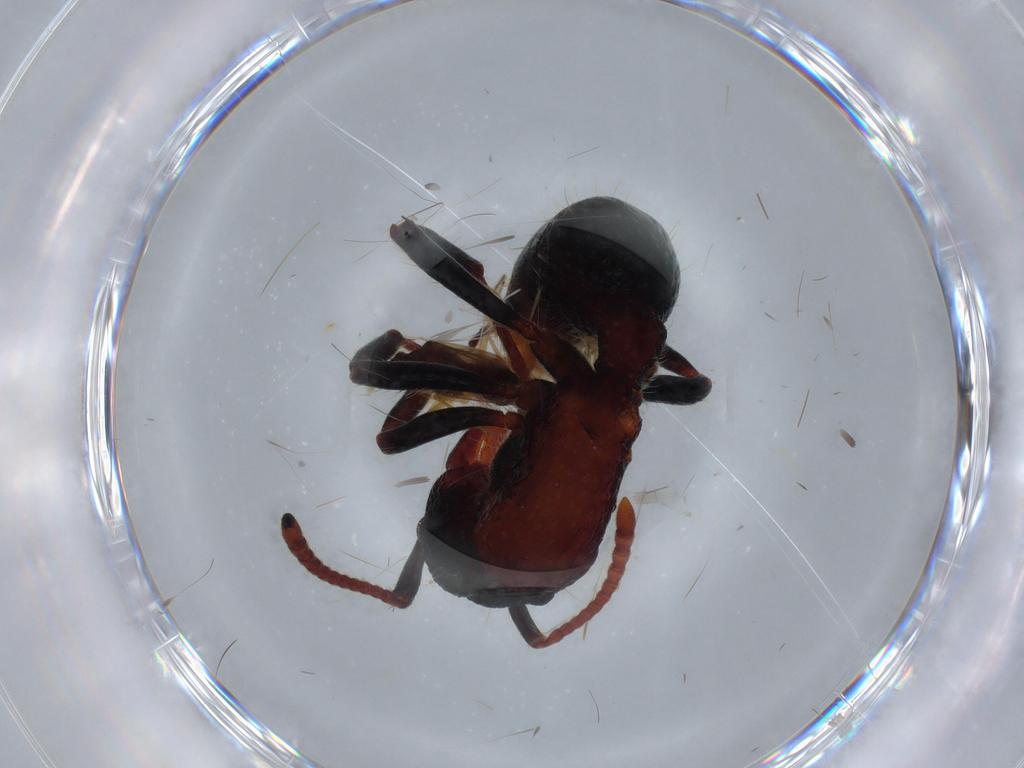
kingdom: Animalia
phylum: Arthropoda
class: Insecta
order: Hymenoptera
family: Formicidae
